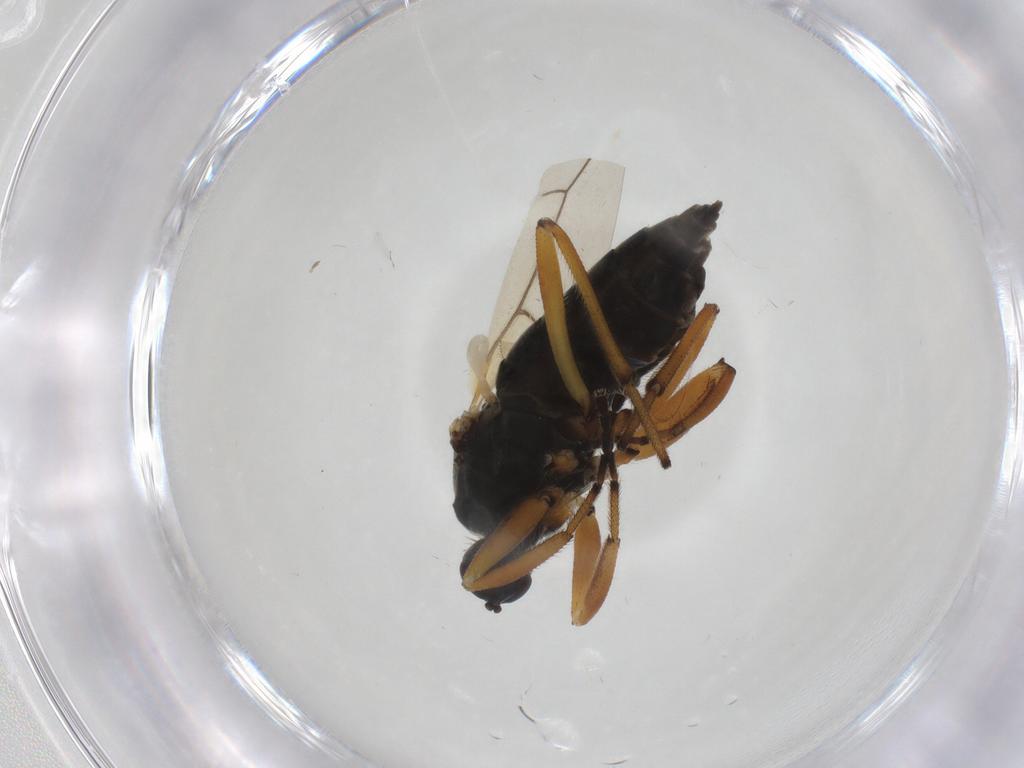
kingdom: Animalia
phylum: Arthropoda
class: Insecta
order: Diptera
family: Hybotidae
